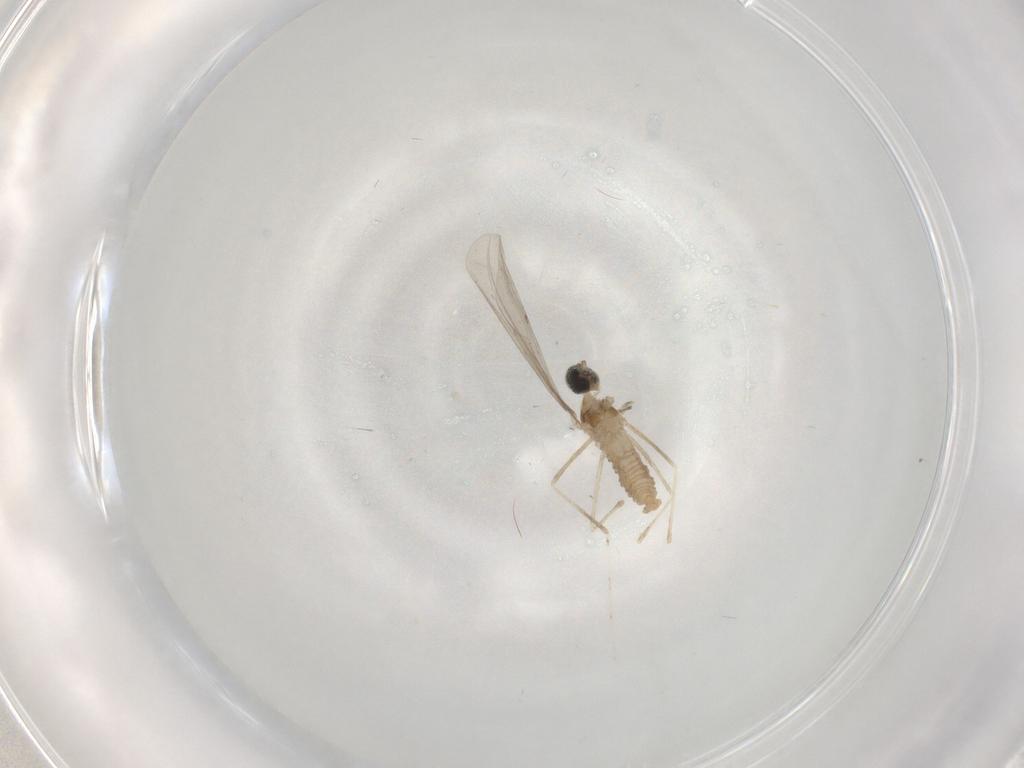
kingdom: Animalia
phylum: Arthropoda
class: Insecta
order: Diptera
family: Cecidomyiidae
